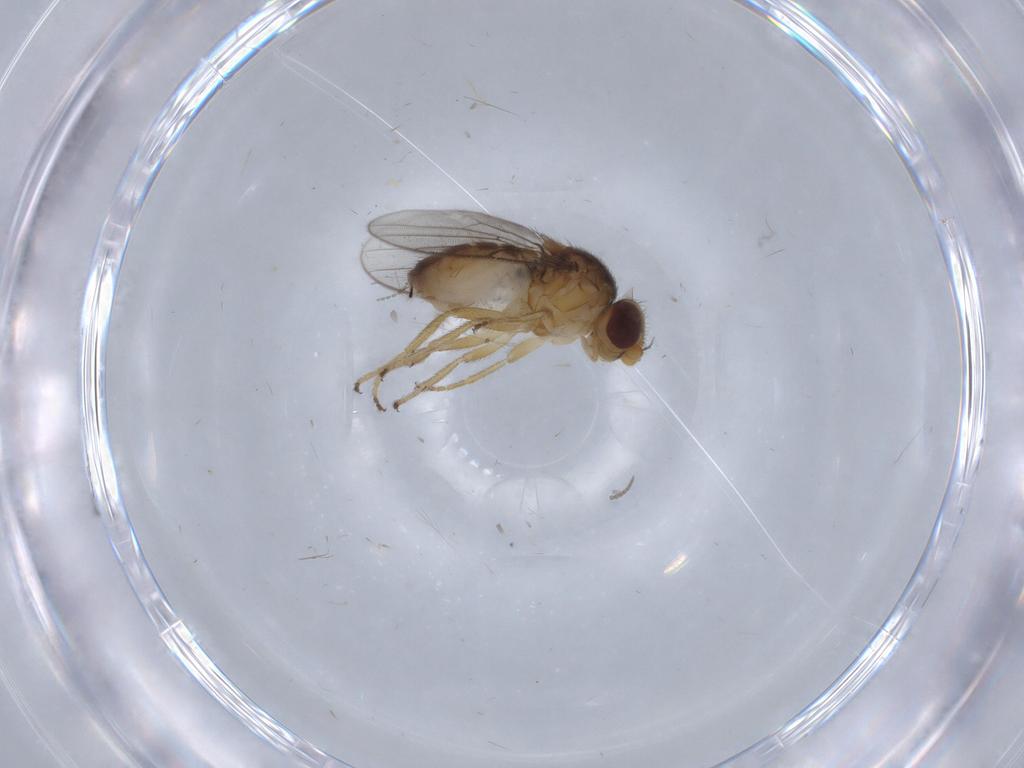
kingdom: Animalia
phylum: Arthropoda
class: Insecta
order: Diptera
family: Chloropidae
